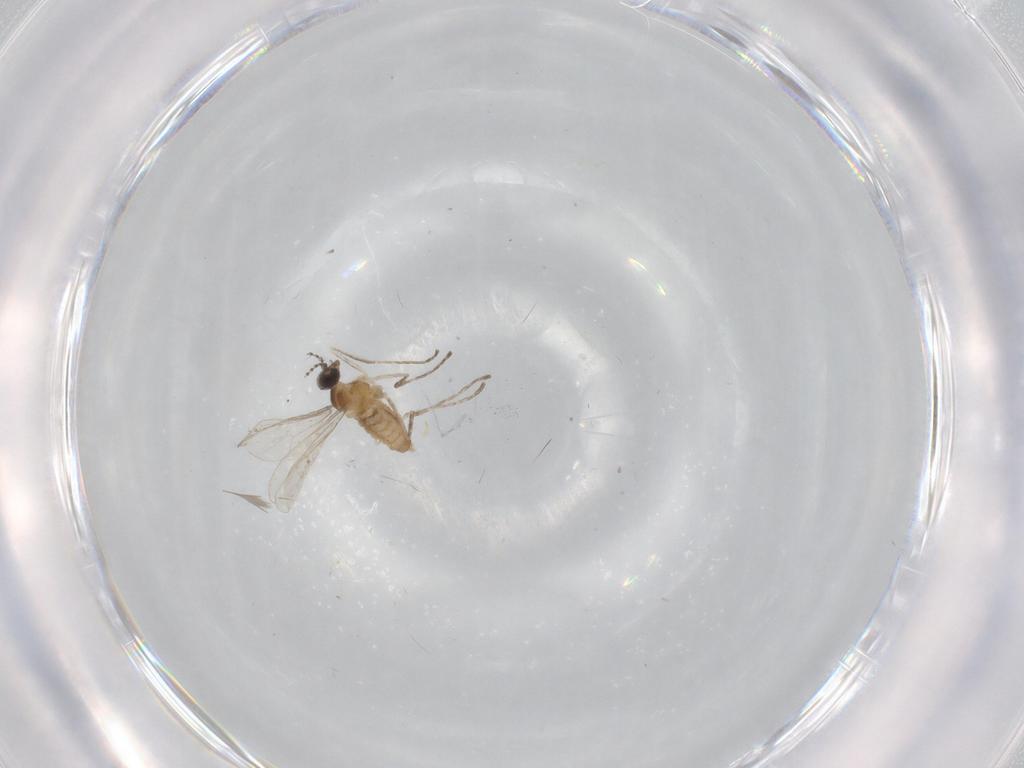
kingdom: Animalia
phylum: Arthropoda
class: Insecta
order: Diptera
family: Cecidomyiidae
